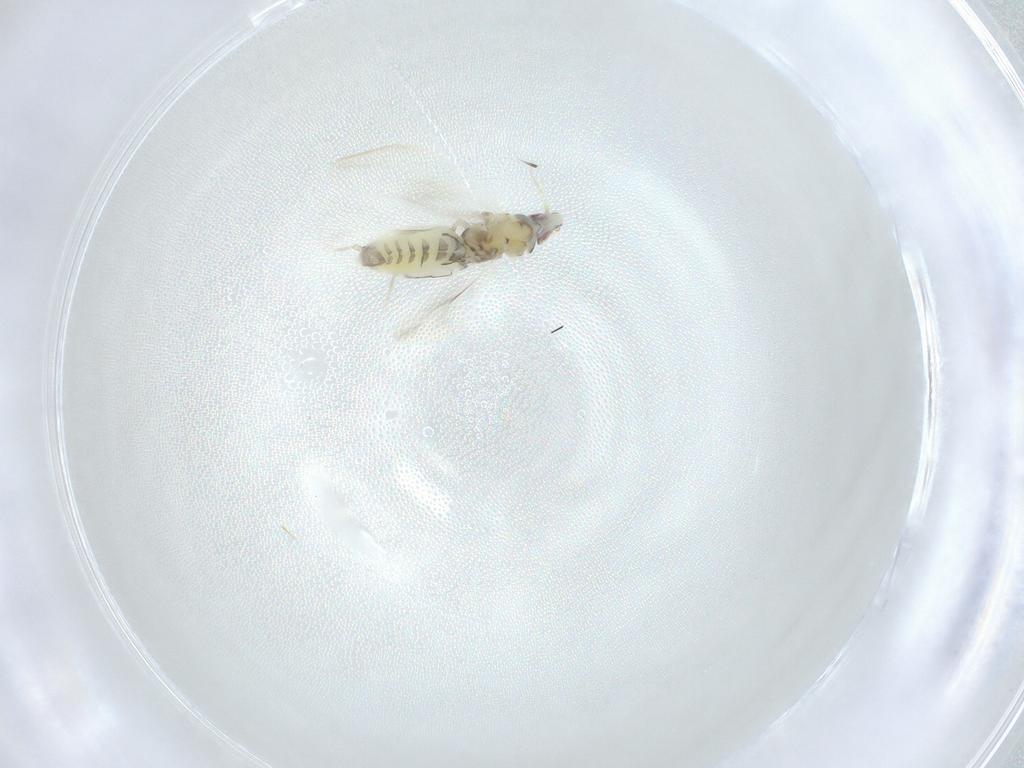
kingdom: Animalia
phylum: Arthropoda
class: Insecta
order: Hemiptera
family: Aleyrodidae
